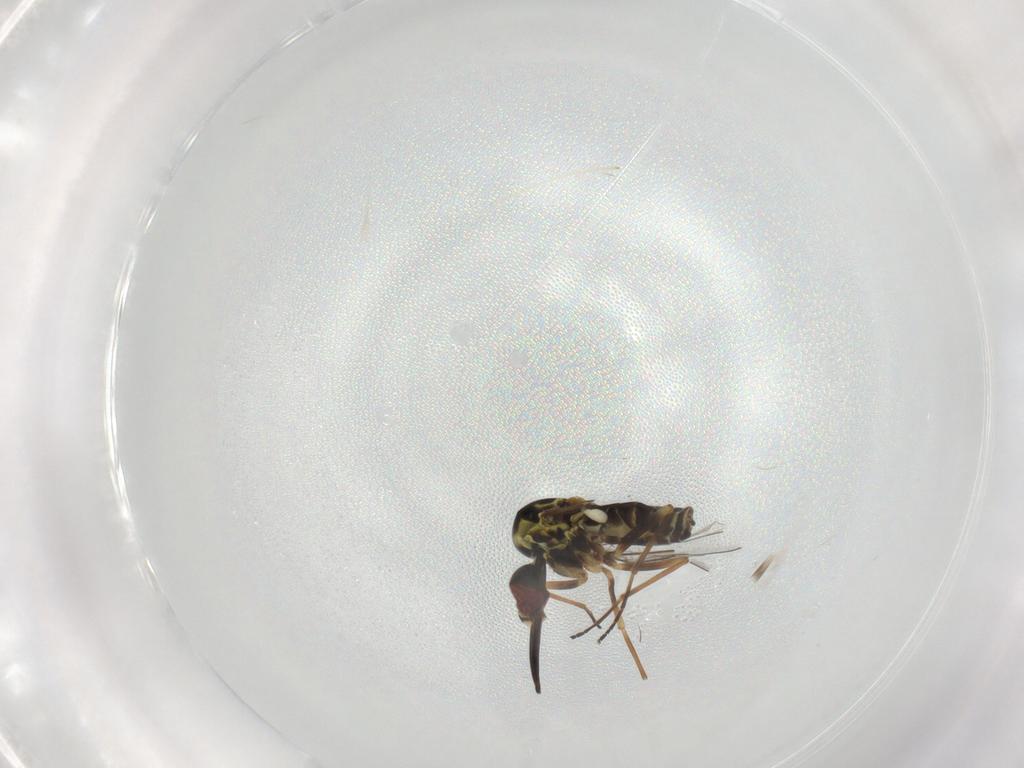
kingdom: Animalia
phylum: Arthropoda
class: Insecta
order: Diptera
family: Bombyliidae
